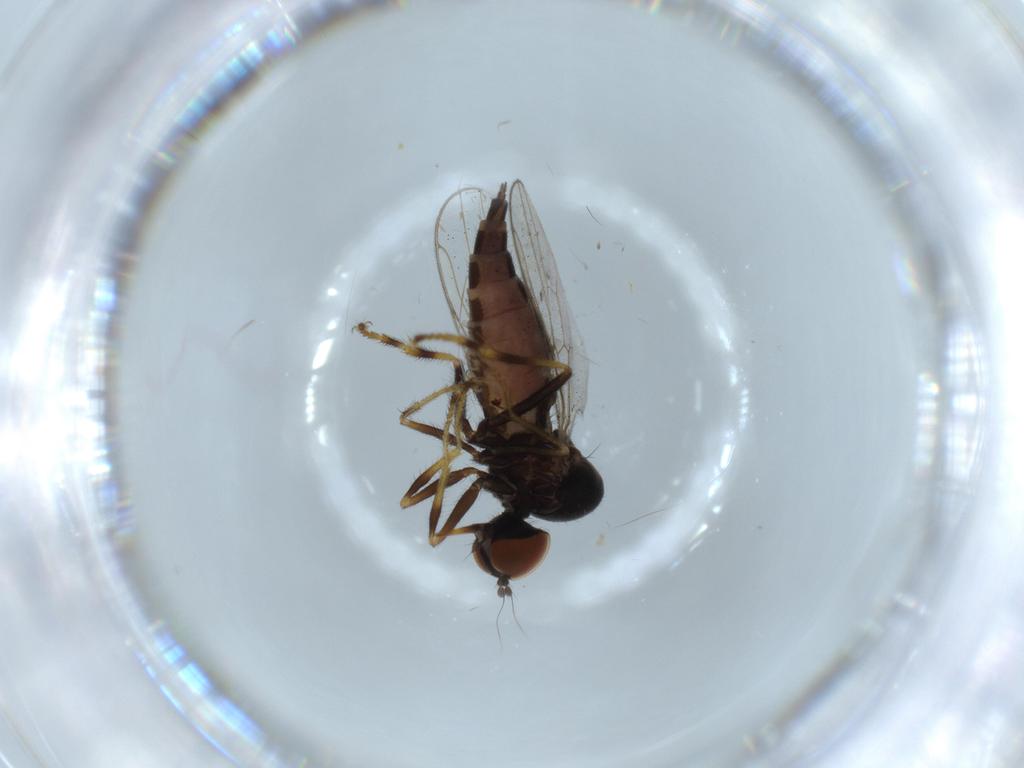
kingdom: Animalia
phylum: Arthropoda
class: Insecta
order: Diptera
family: Hybotidae
